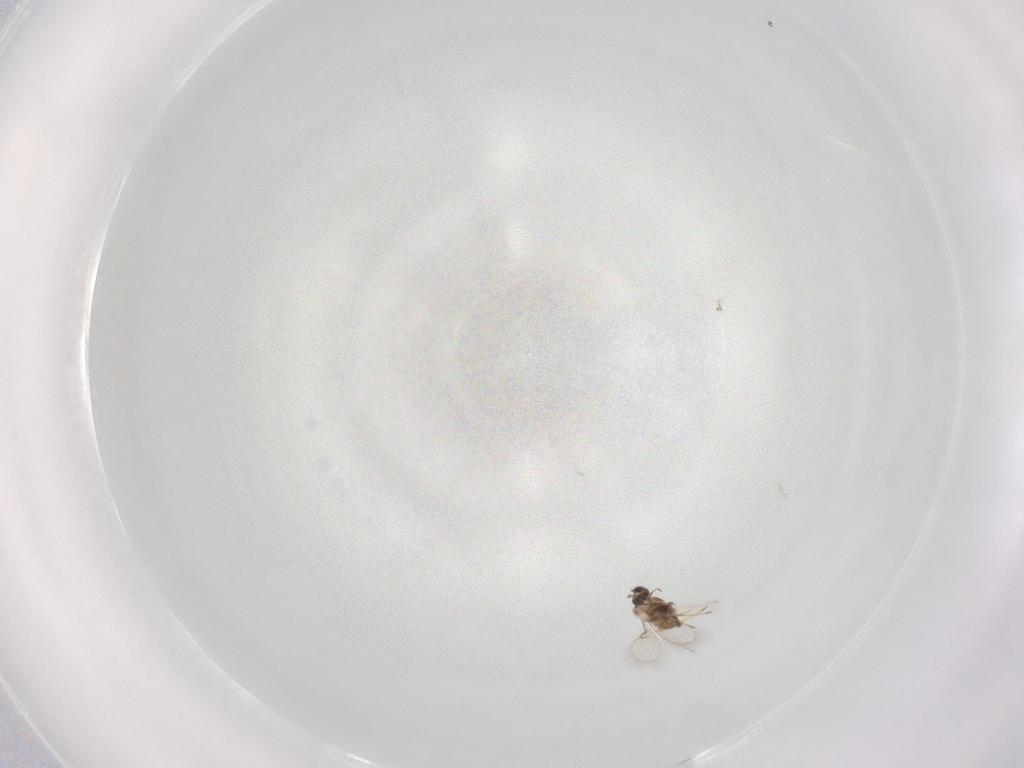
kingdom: Animalia
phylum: Arthropoda
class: Insecta
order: Hymenoptera
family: Trichogrammatidae
